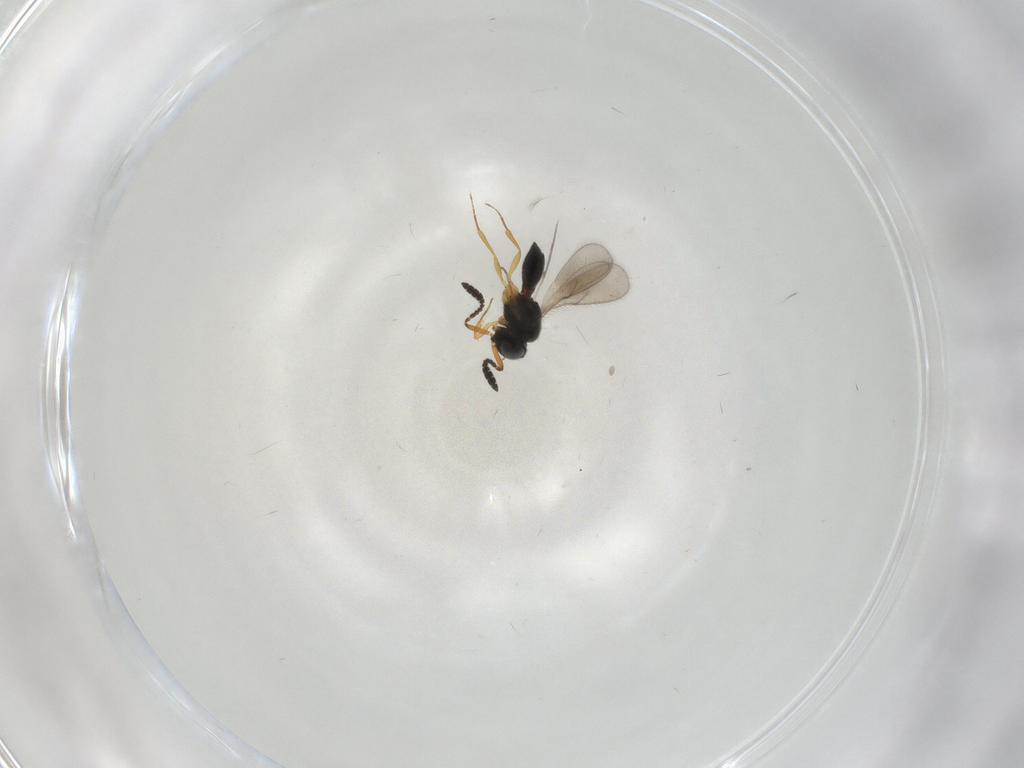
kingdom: Animalia
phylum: Arthropoda
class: Insecta
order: Hymenoptera
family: Scelionidae
